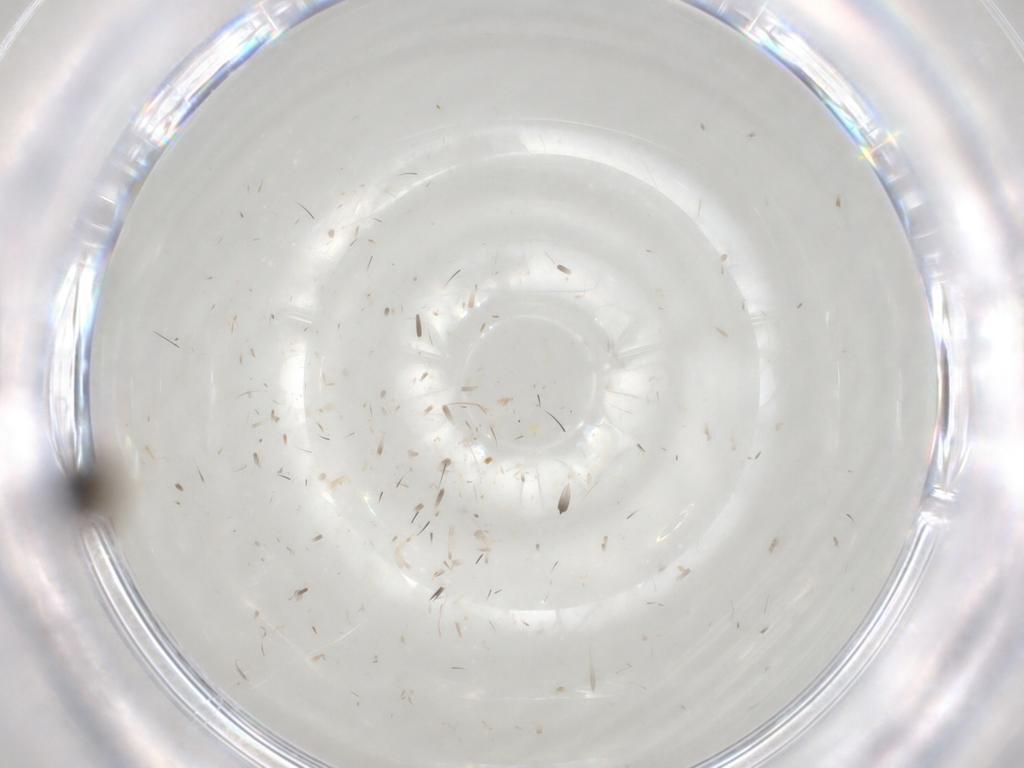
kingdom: Animalia
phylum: Arthropoda
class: Insecta
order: Diptera
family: Ephydridae
